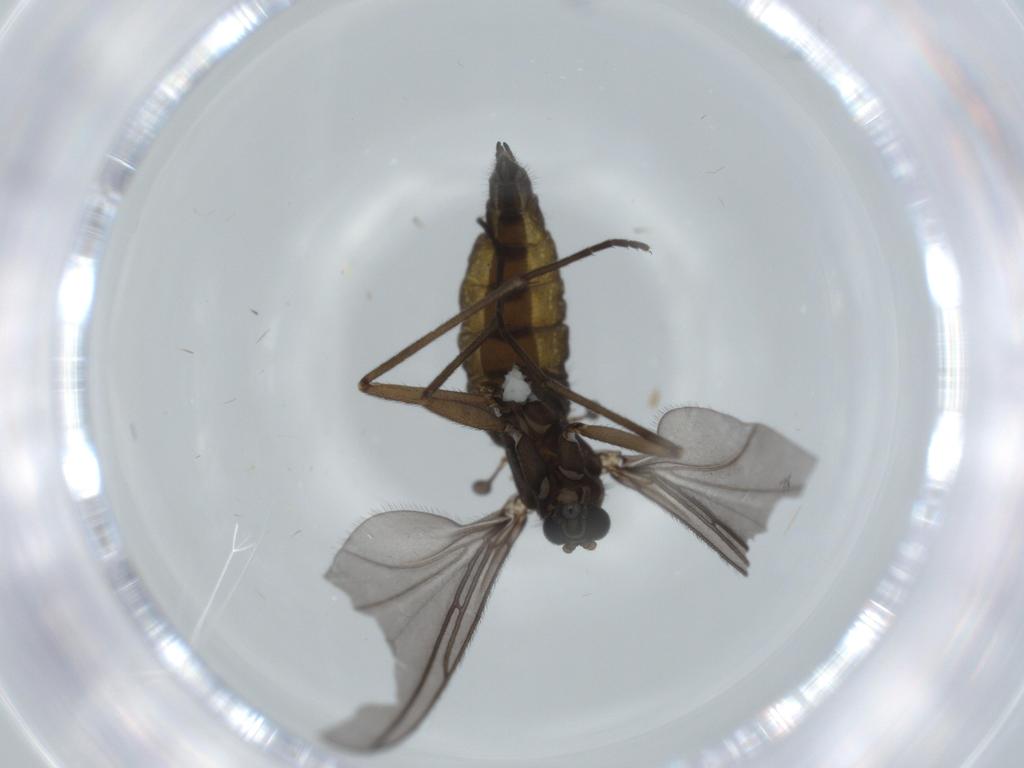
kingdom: Animalia
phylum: Arthropoda
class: Insecta
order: Diptera
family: Sciaridae
